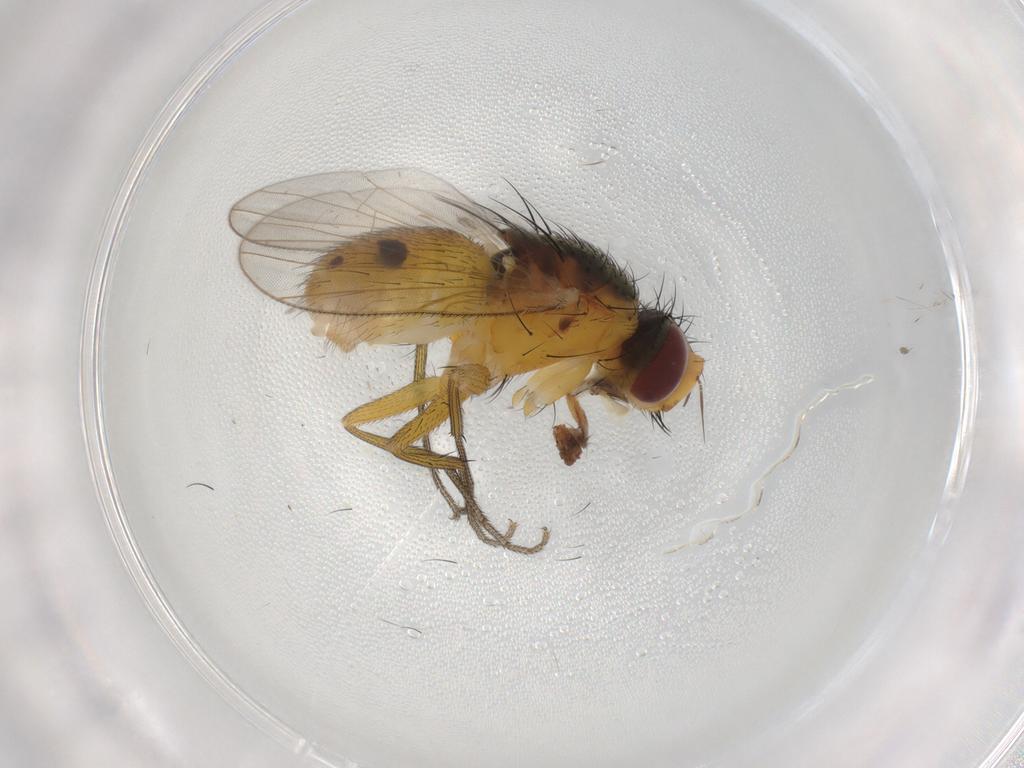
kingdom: Animalia
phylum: Arthropoda
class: Insecta
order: Diptera
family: Muscidae
